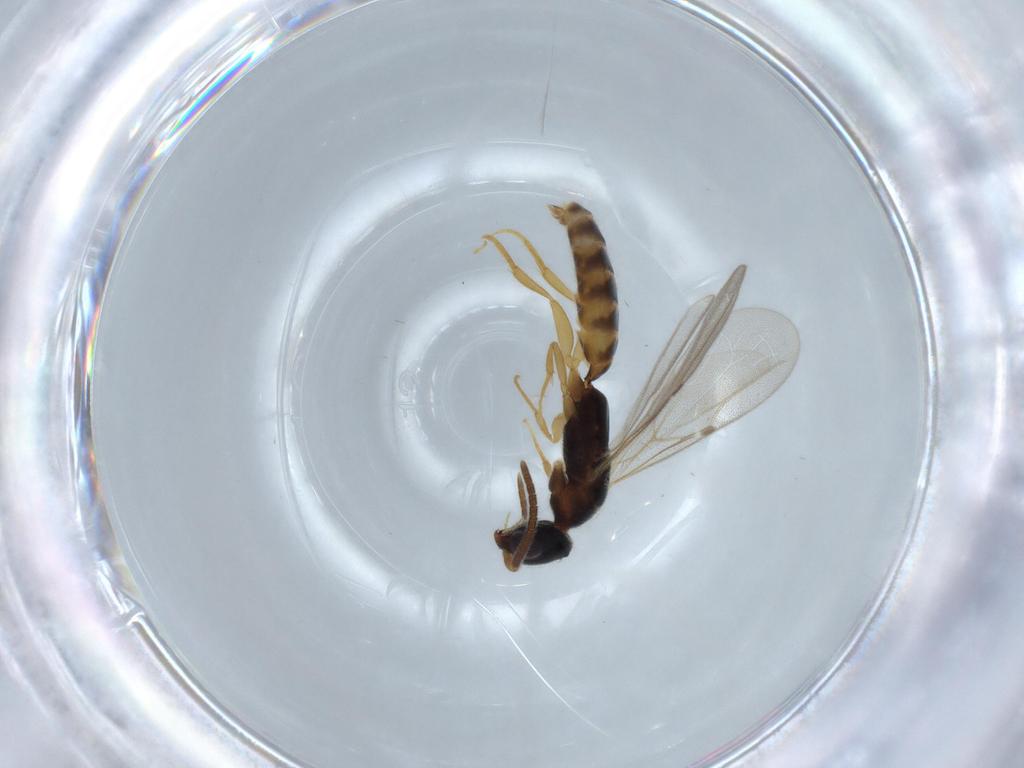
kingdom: Animalia
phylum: Arthropoda
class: Insecta
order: Hymenoptera
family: Bethylidae
